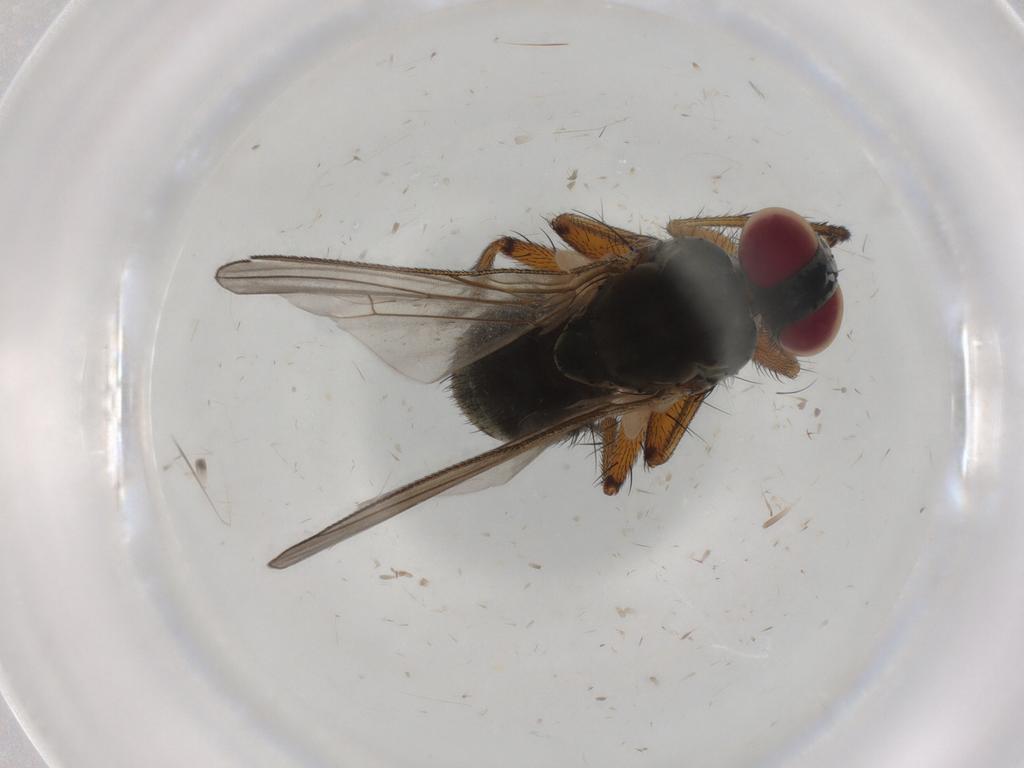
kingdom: Animalia
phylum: Arthropoda
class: Insecta
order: Diptera
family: Muscidae
